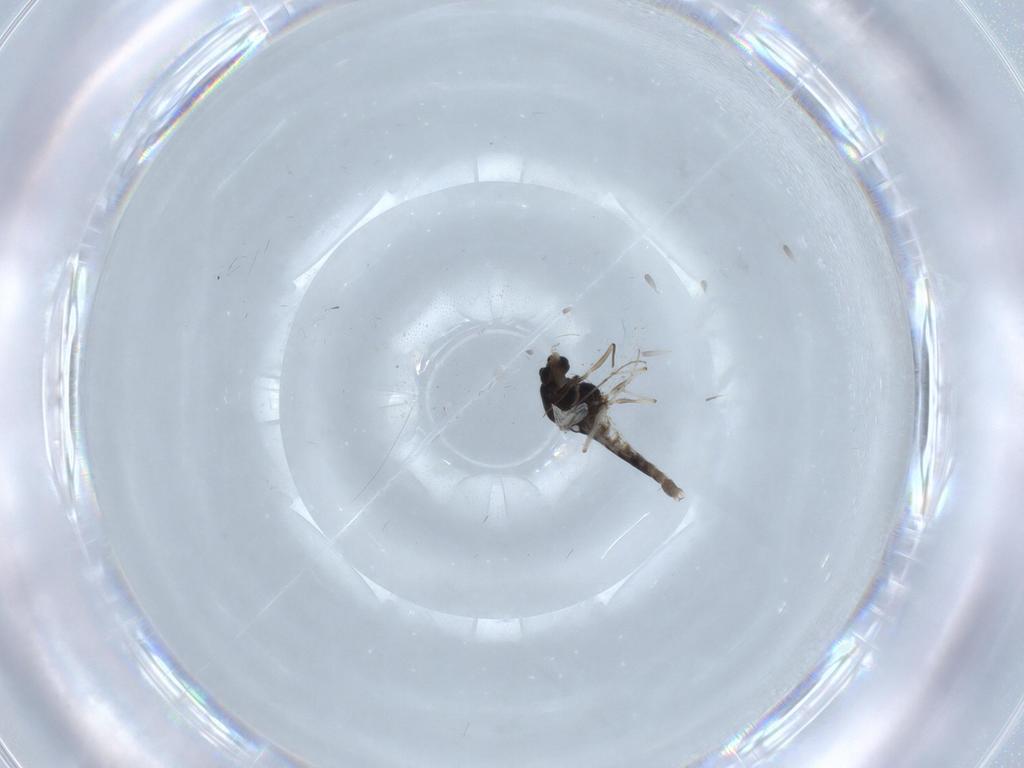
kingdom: Animalia
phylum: Arthropoda
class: Insecta
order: Diptera
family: Chironomidae
